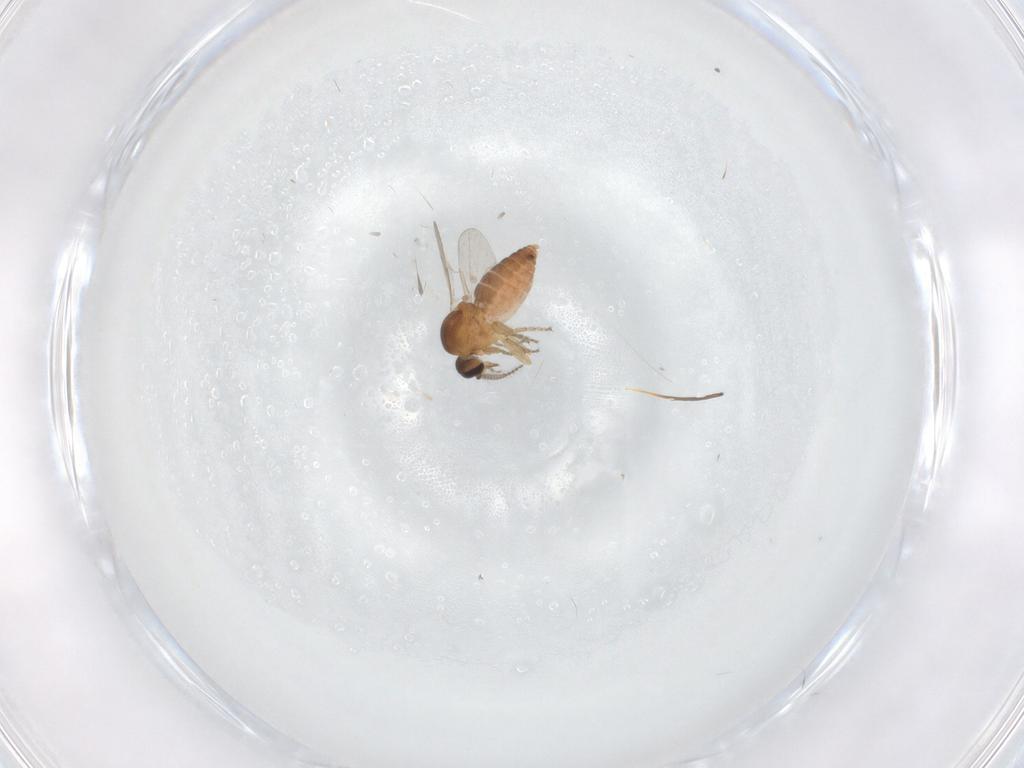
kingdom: Animalia
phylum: Arthropoda
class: Insecta
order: Diptera
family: Ceratopogonidae
